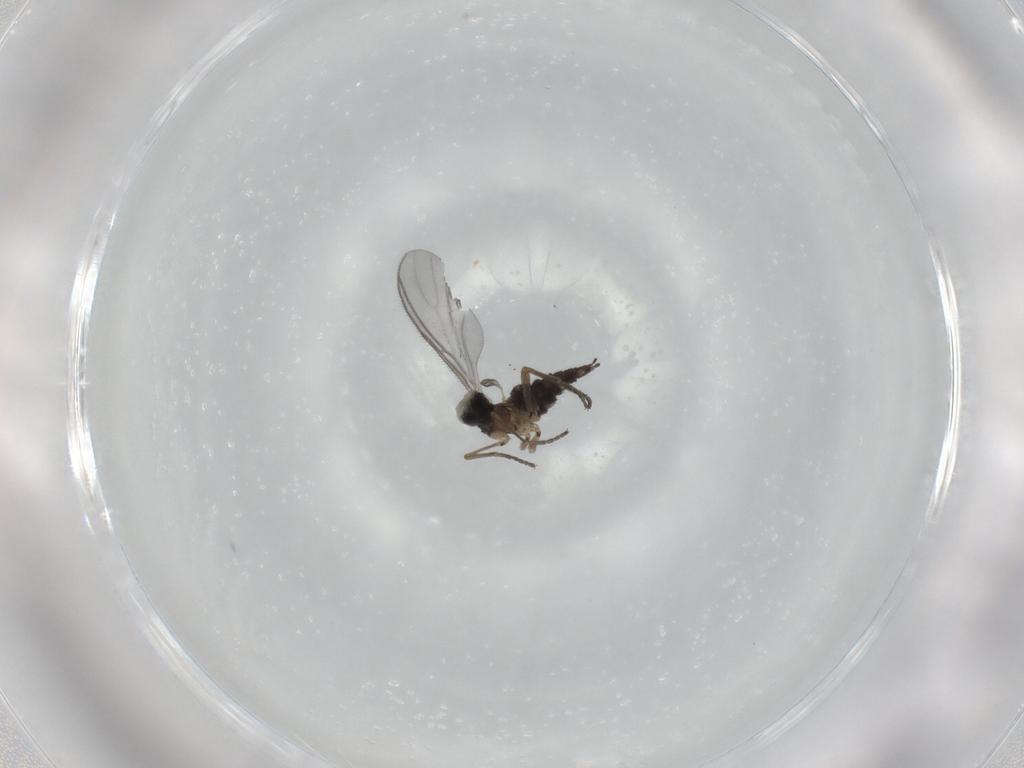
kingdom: Animalia
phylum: Arthropoda
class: Insecta
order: Diptera
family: Sciaridae
